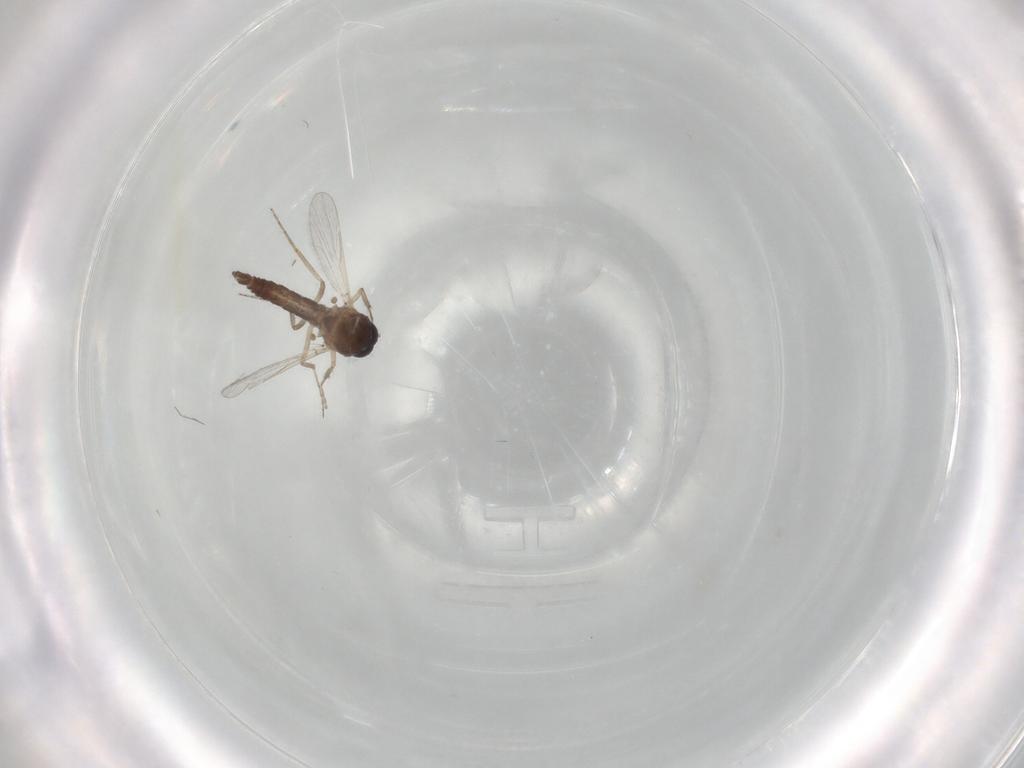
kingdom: Animalia
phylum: Arthropoda
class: Insecta
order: Diptera
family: Ceratopogonidae
